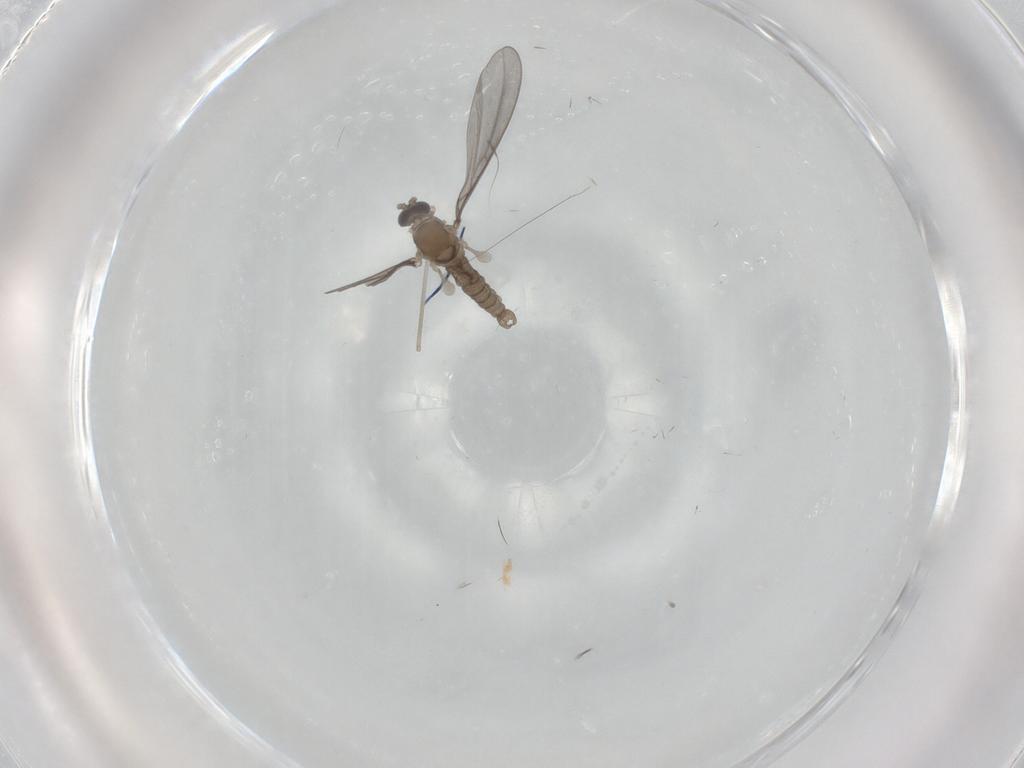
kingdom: Animalia
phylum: Arthropoda
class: Insecta
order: Diptera
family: Cecidomyiidae
